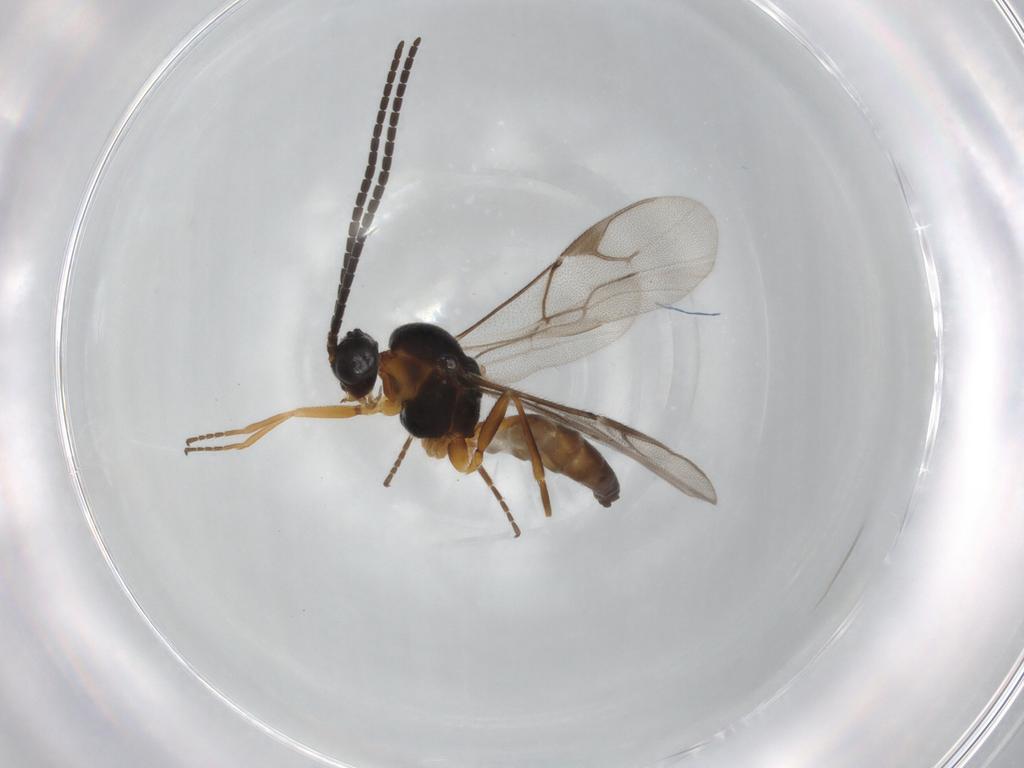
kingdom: Animalia
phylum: Arthropoda
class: Insecta
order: Hymenoptera
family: Braconidae
